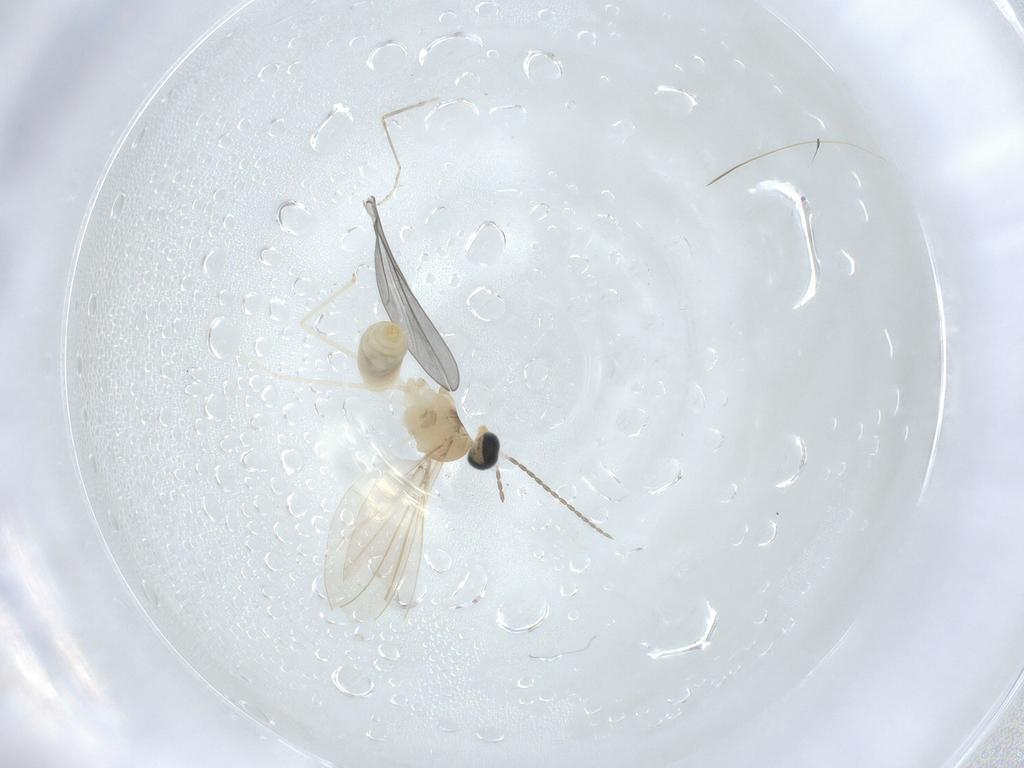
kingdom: Animalia
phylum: Arthropoda
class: Insecta
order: Diptera
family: Cecidomyiidae
